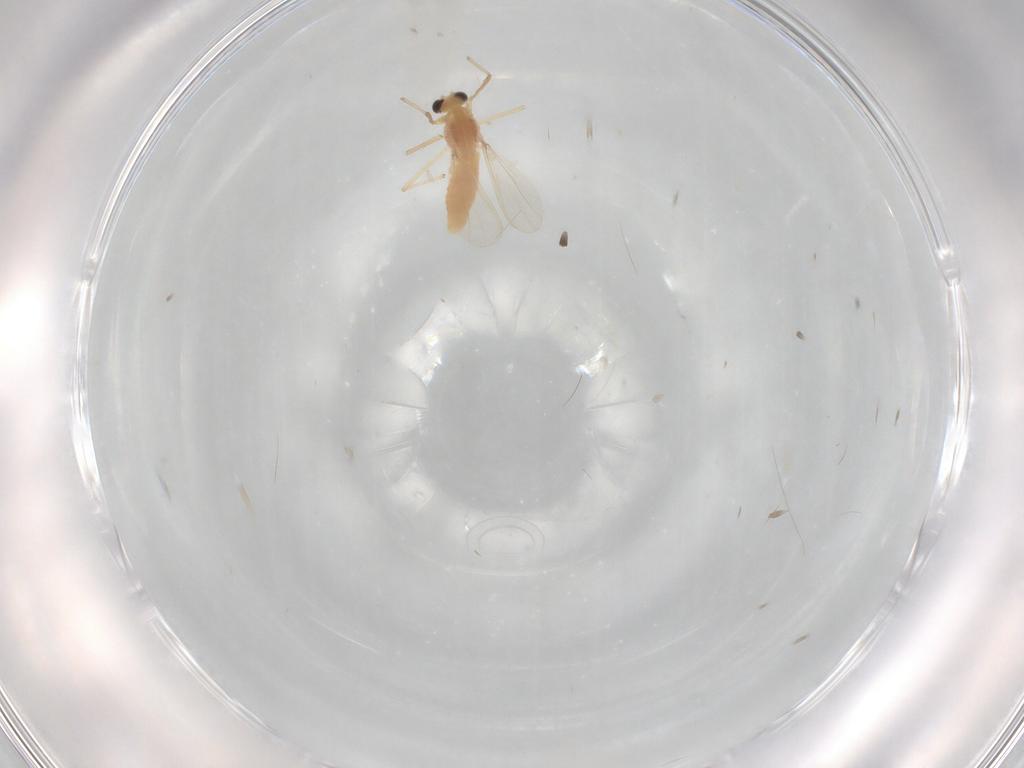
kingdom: Animalia
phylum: Arthropoda
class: Insecta
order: Diptera
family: Chironomidae
